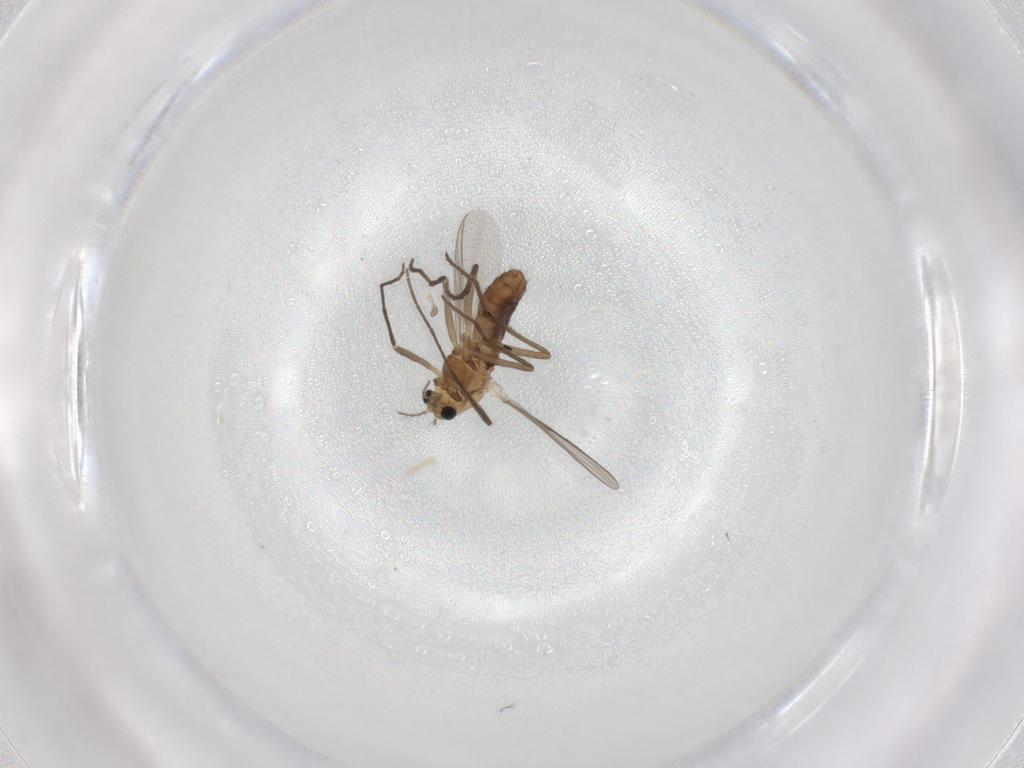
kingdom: Animalia
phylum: Arthropoda
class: Insecta
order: Diptera
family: Chironomidae
